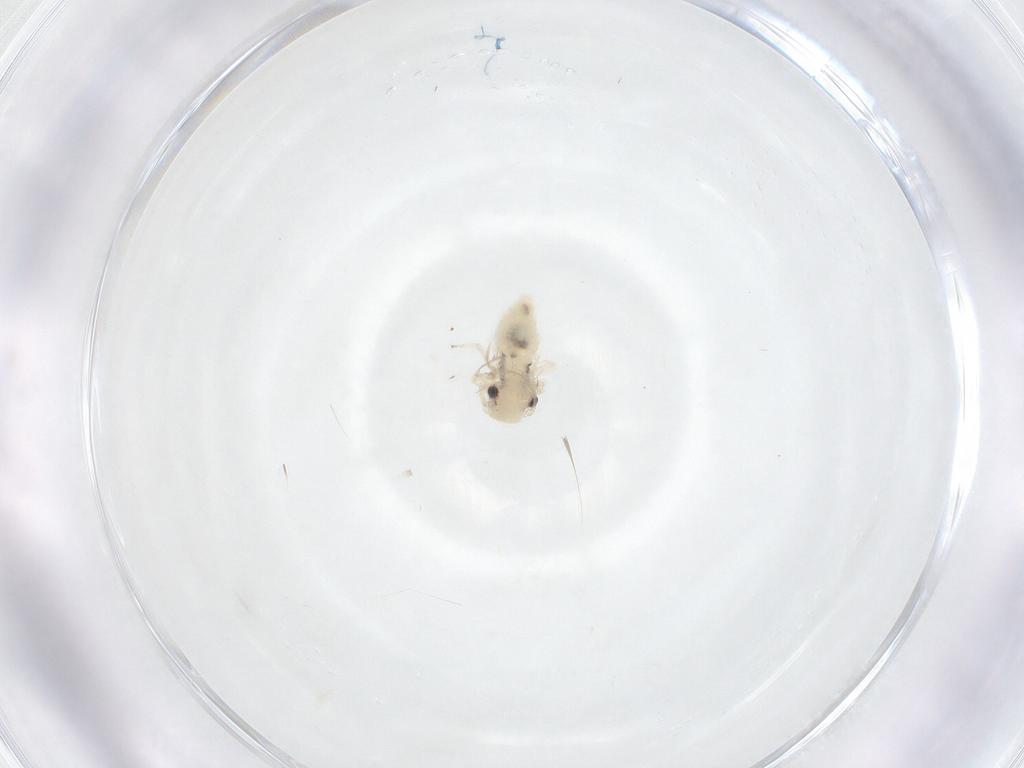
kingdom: Animalia
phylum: Arthropoda
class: Insecta
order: Psocodea
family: Caeciliusidae
